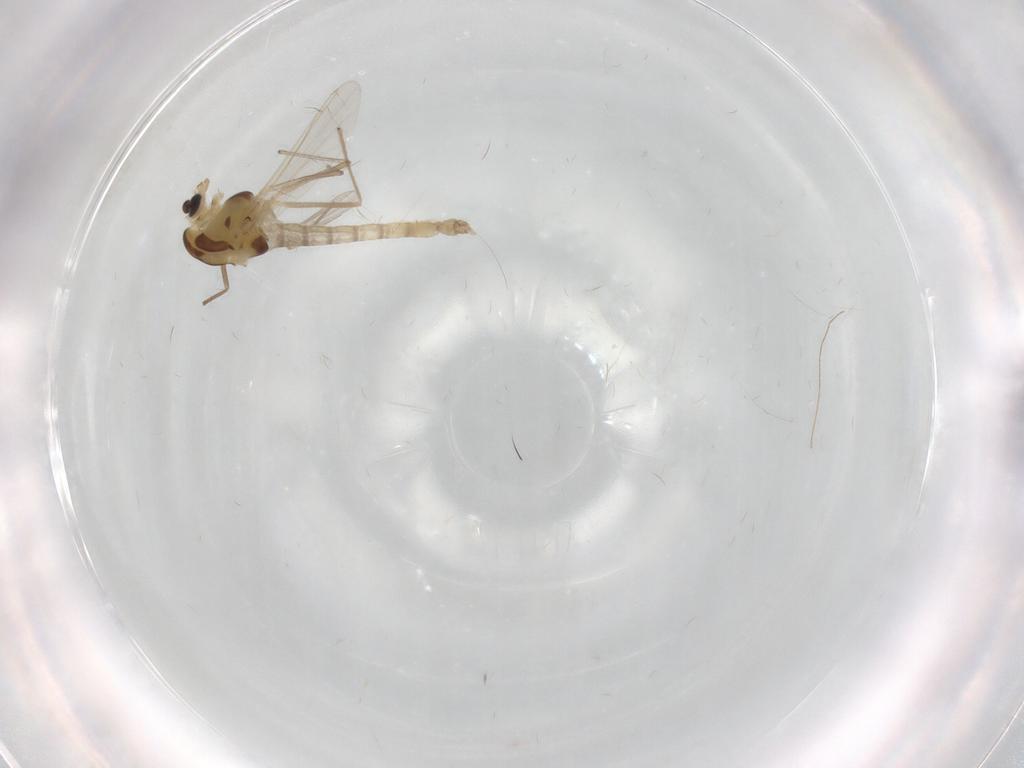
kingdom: Animalia
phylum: Arthropoda
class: Insecta
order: Diptera
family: Chironomidae
